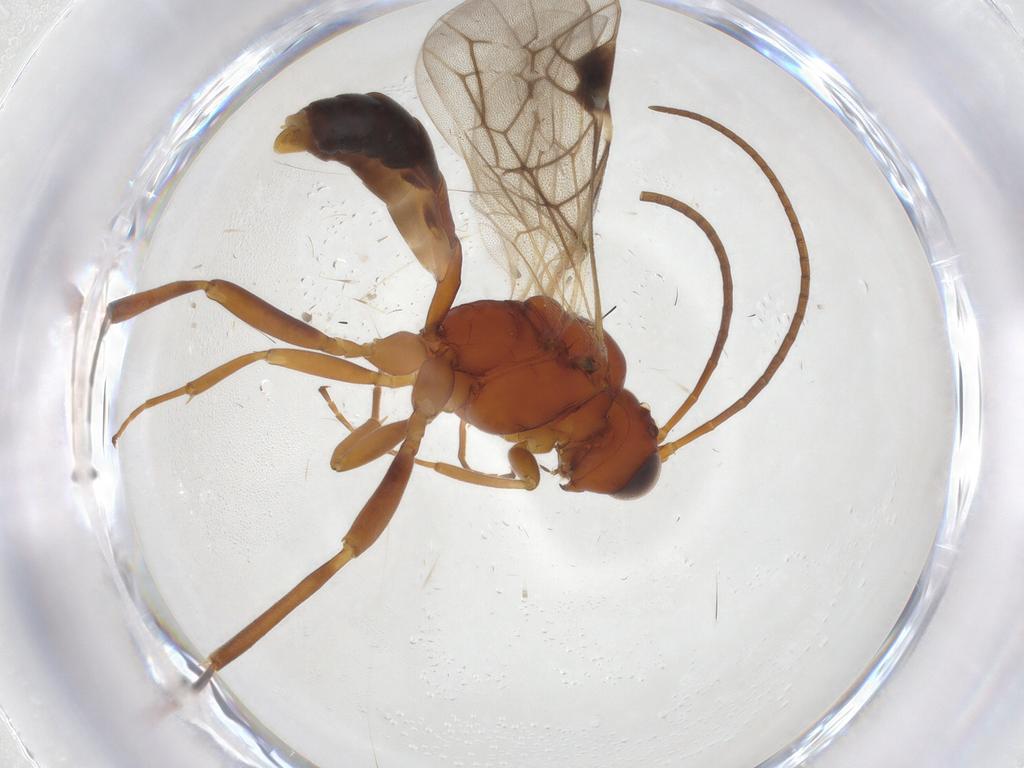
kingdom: Animalia
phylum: Arthropoda
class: Insecta
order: Hymenoptera
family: Ichneumonidae
